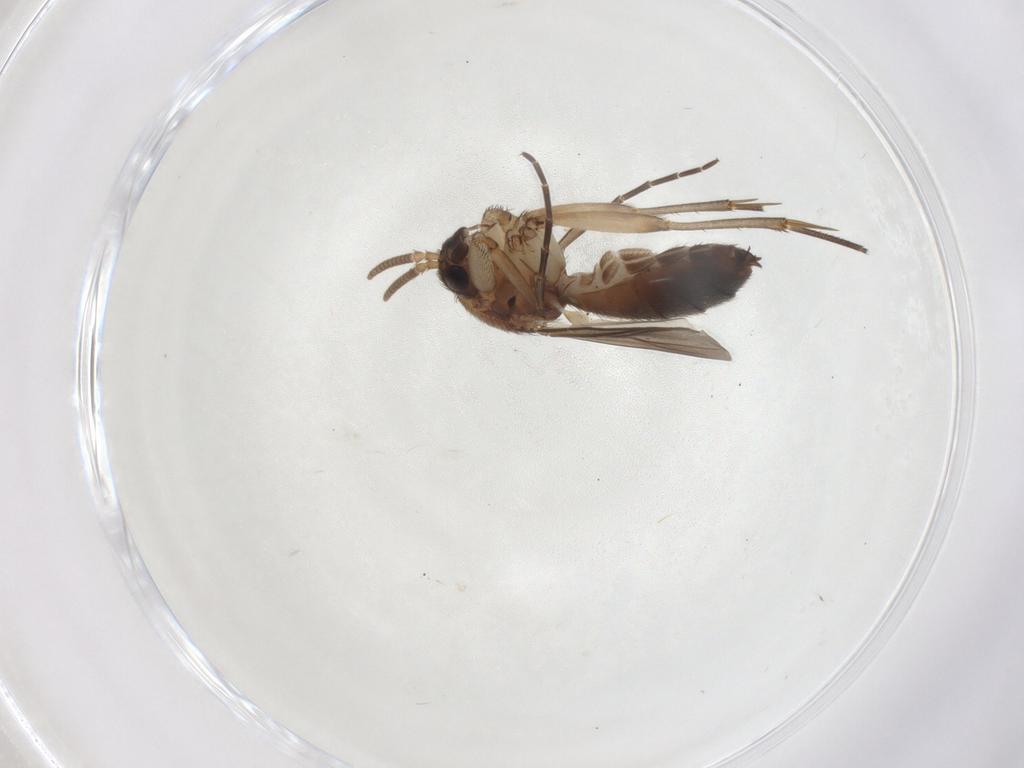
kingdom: Animalia
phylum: Arthropoda
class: Insecta
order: Diptera
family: Mycetophilidae
